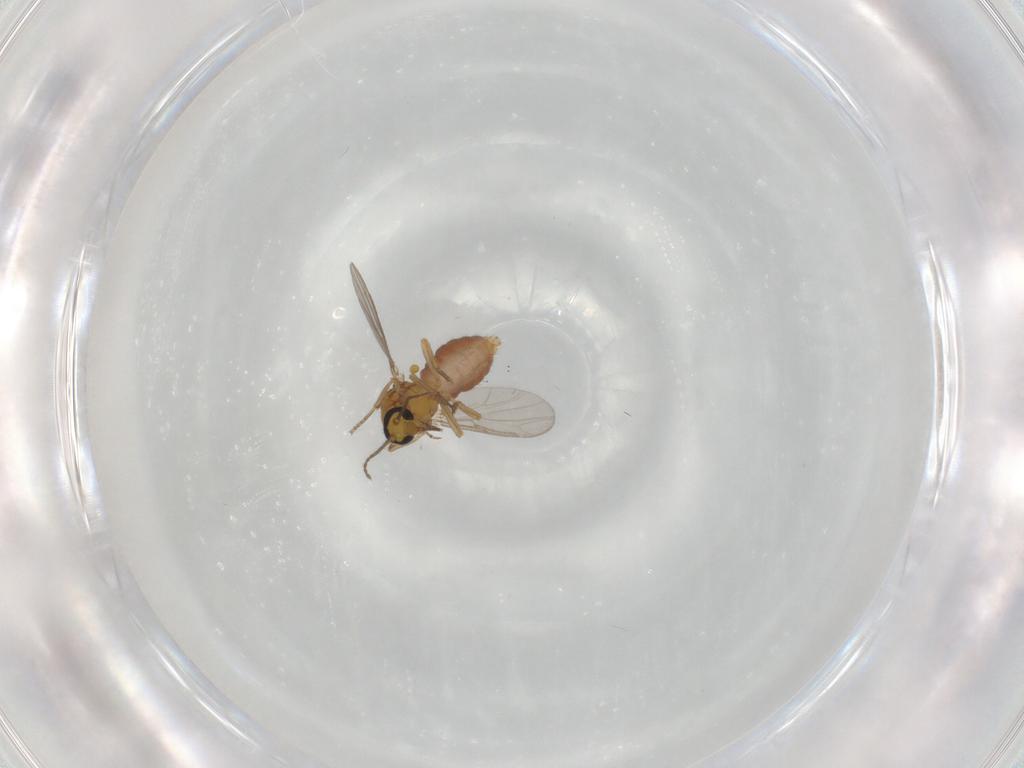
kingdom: Animalia
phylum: Arthropoda
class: Insecta
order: Diptera
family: Ceratopogonidae
